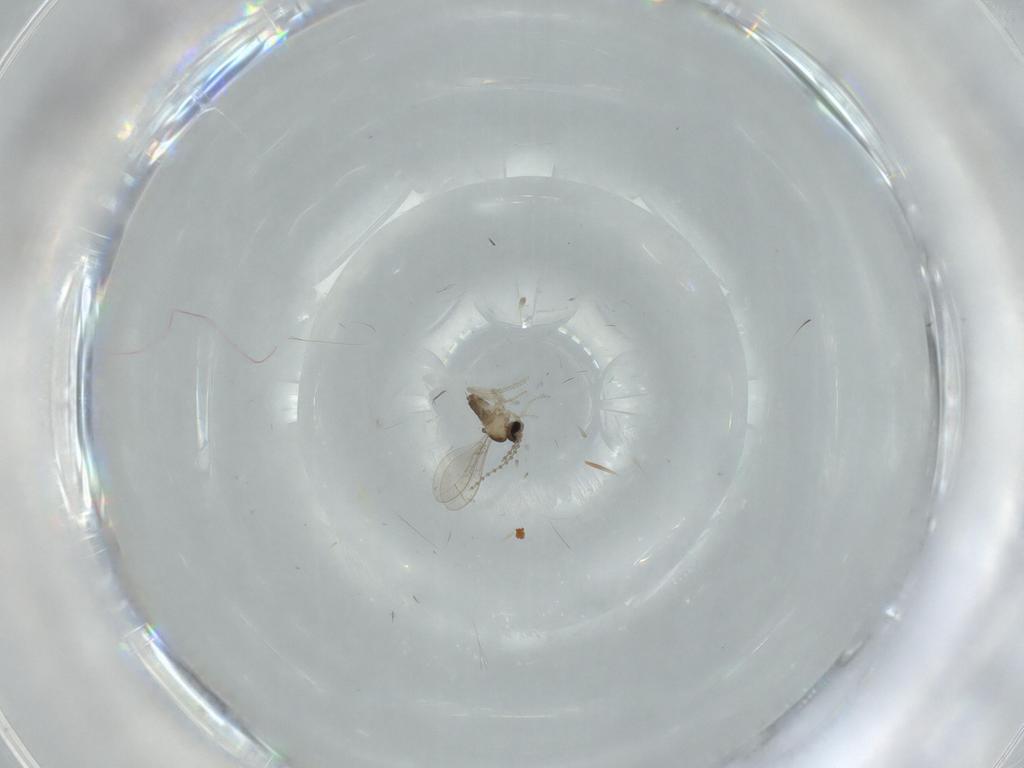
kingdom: Animalia
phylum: Arthropoda
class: Insecta
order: Diptera
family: Cecidomyiidae
